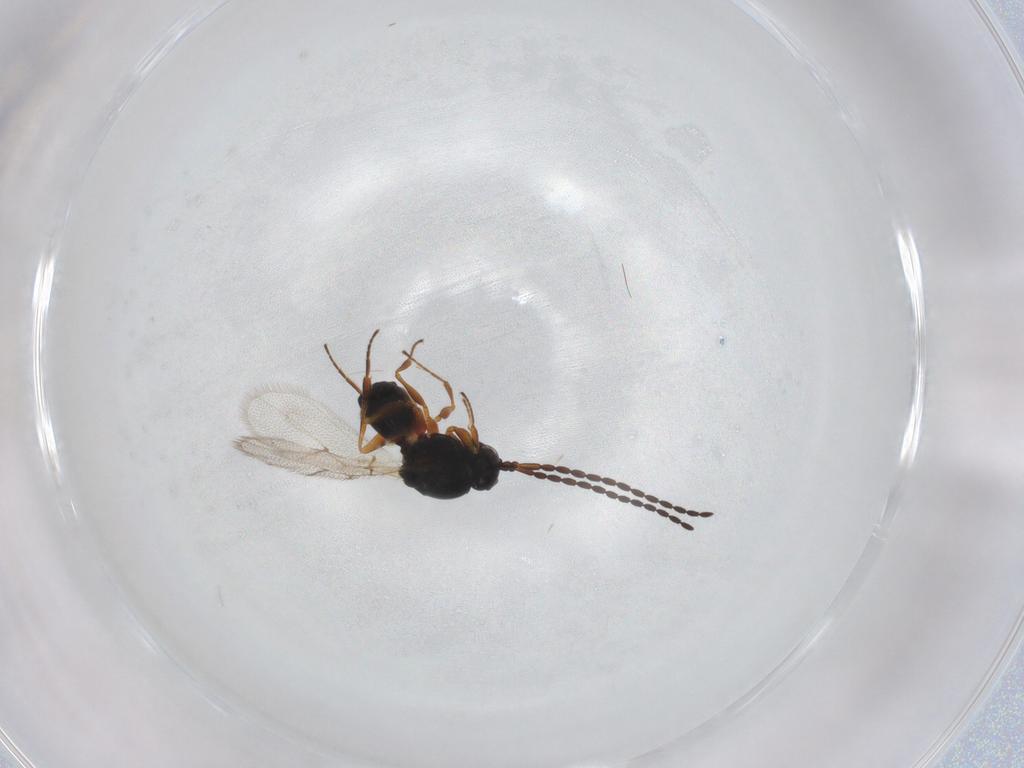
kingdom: Animalia
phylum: Arthropoda
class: Insecta
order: Hymenoptera
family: Figitidae
